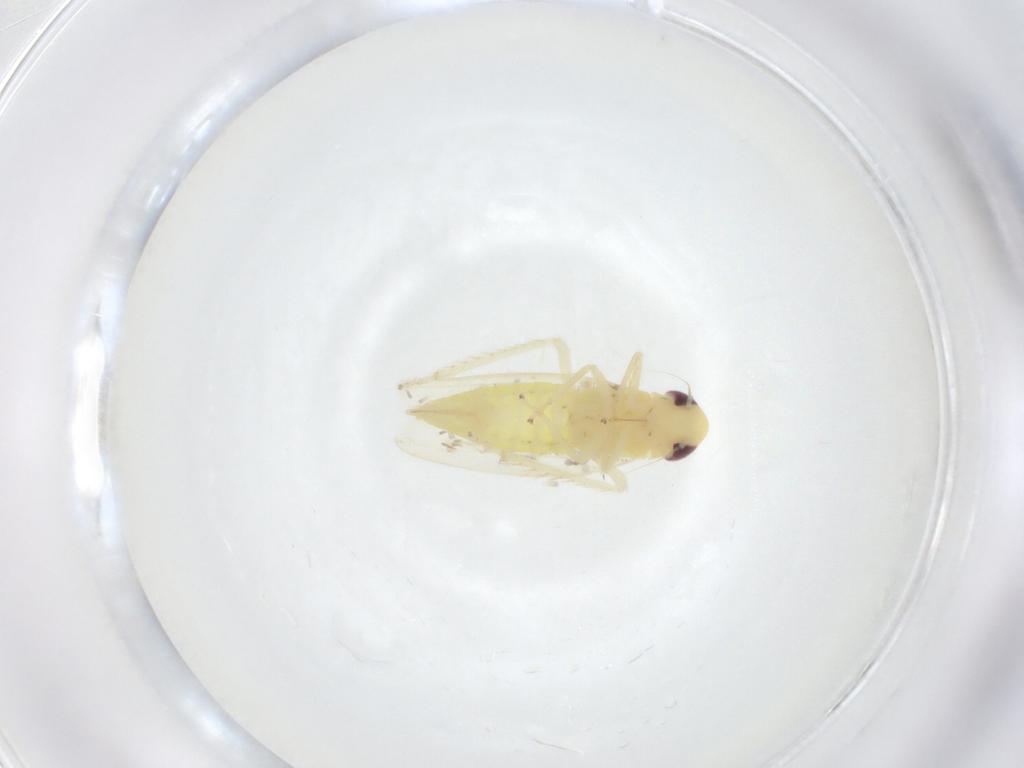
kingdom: Animalia
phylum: Arthropoda
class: Insecta
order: Hemiptera
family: Cicadellidae
